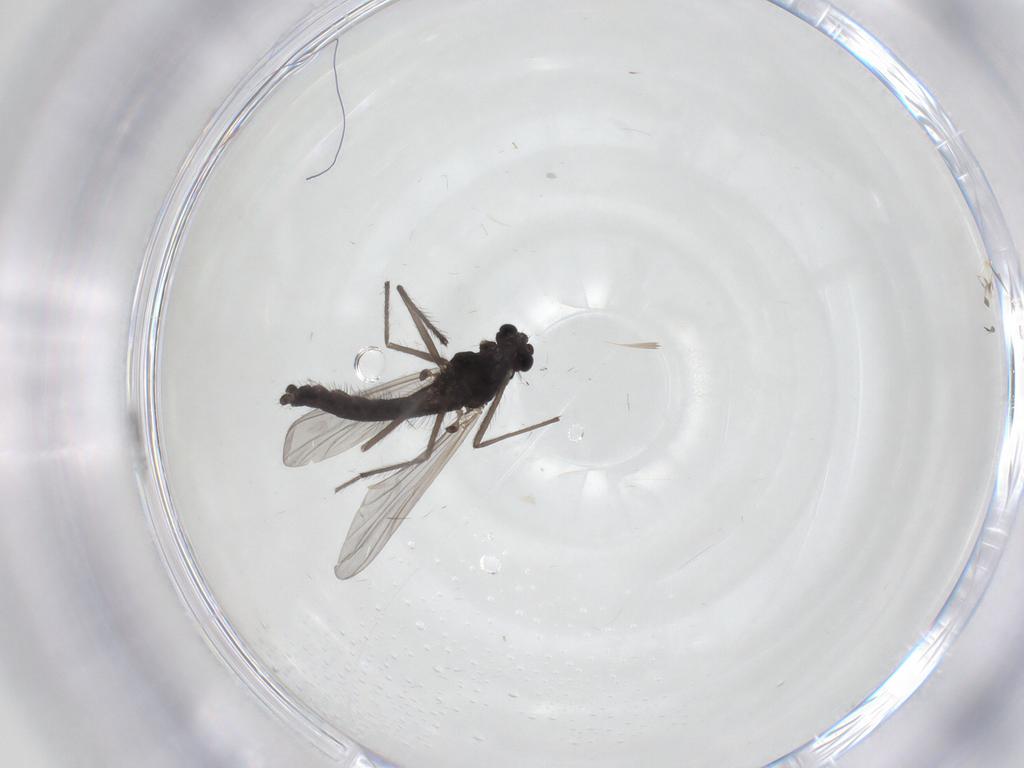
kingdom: Animalia
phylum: Arthropoda
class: Insecta
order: Diptera
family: Chironomidae
